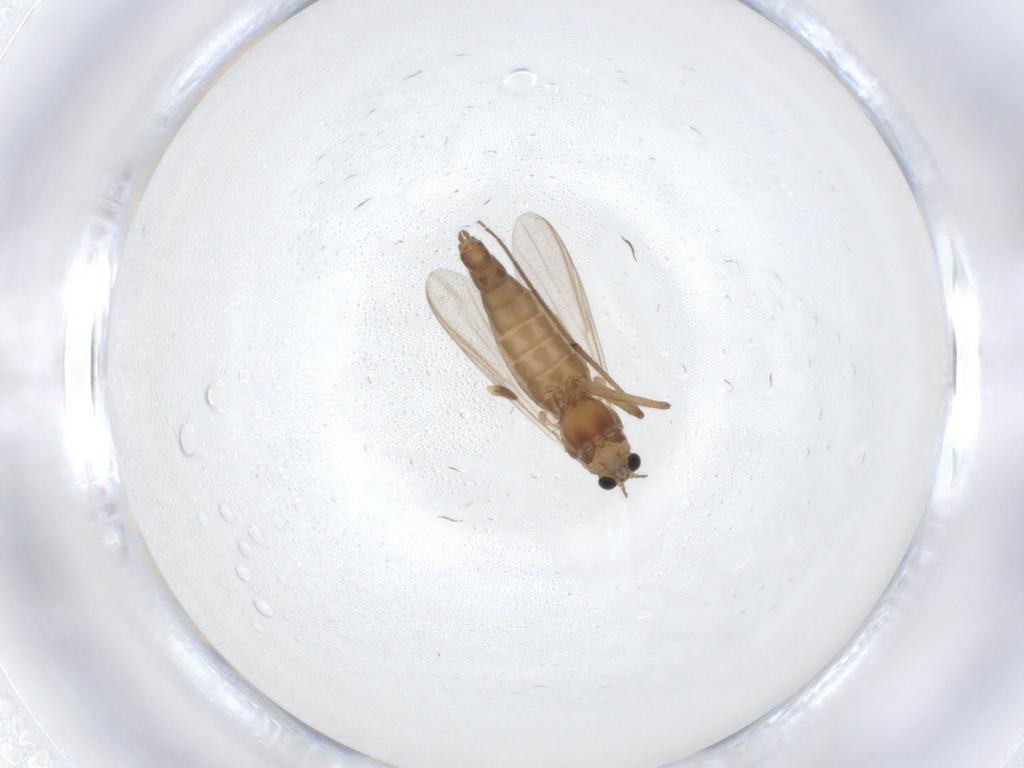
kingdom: Animalia
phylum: Arthropoda
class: Insecta
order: Diptera
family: Chironomidae
